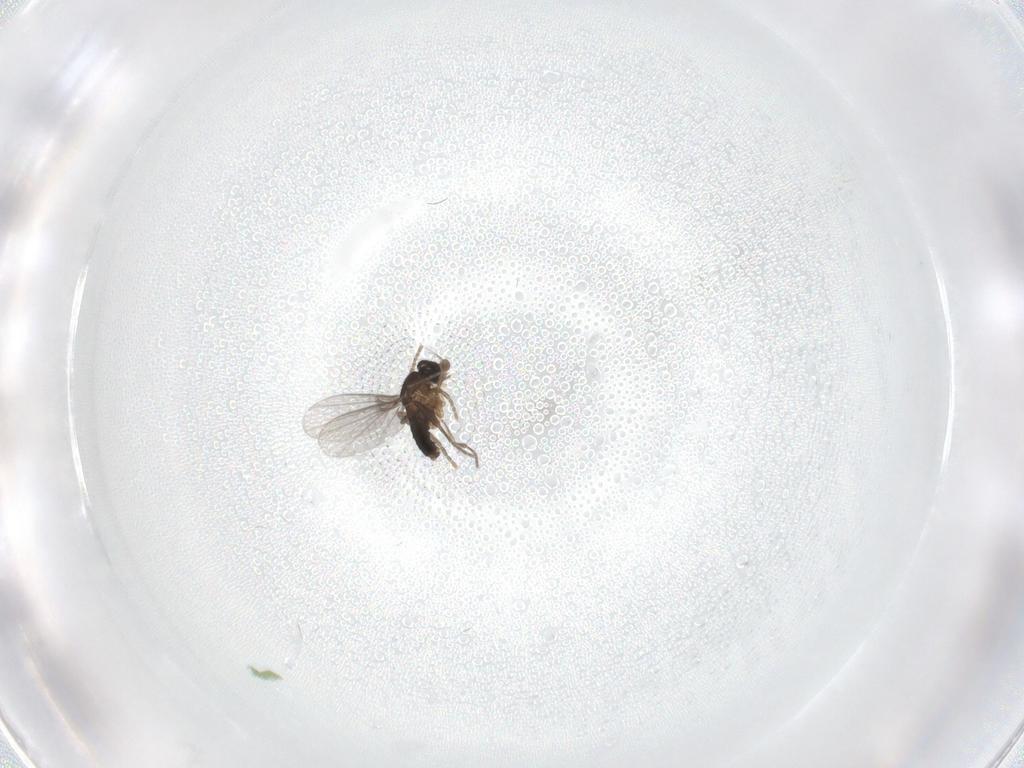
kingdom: Animalia
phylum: Arthropoda
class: Insecta
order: Diptera
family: Phoridae
